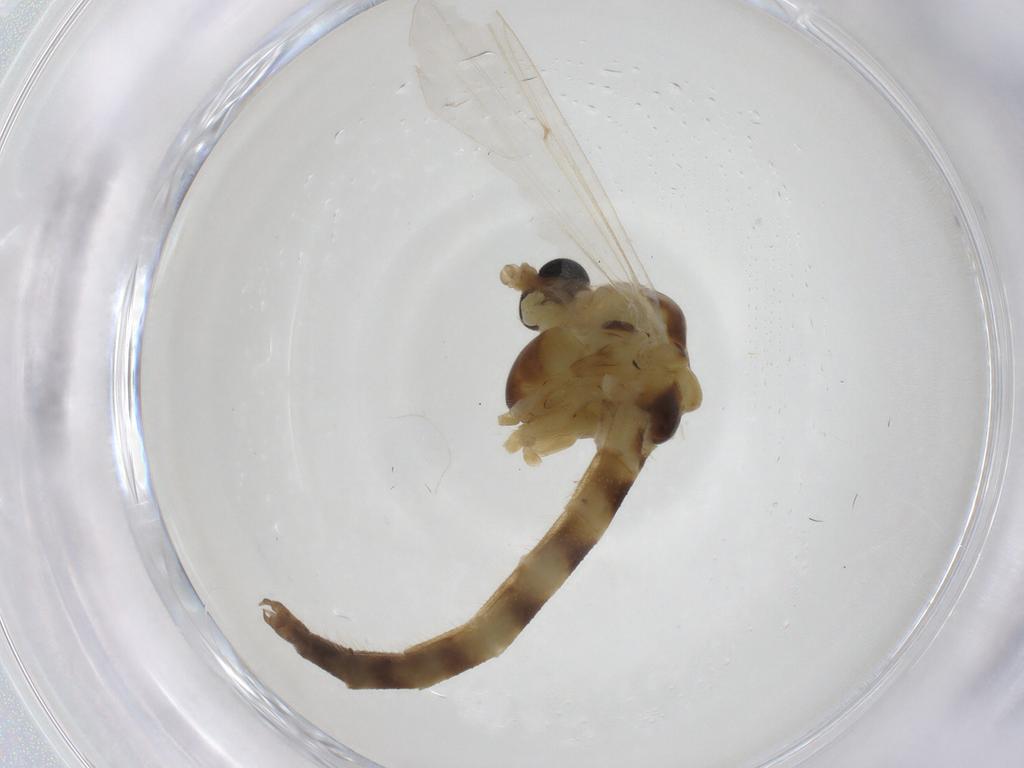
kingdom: Animalia
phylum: Arthropoda
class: Insecta
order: Diptera
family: Chironomidae
